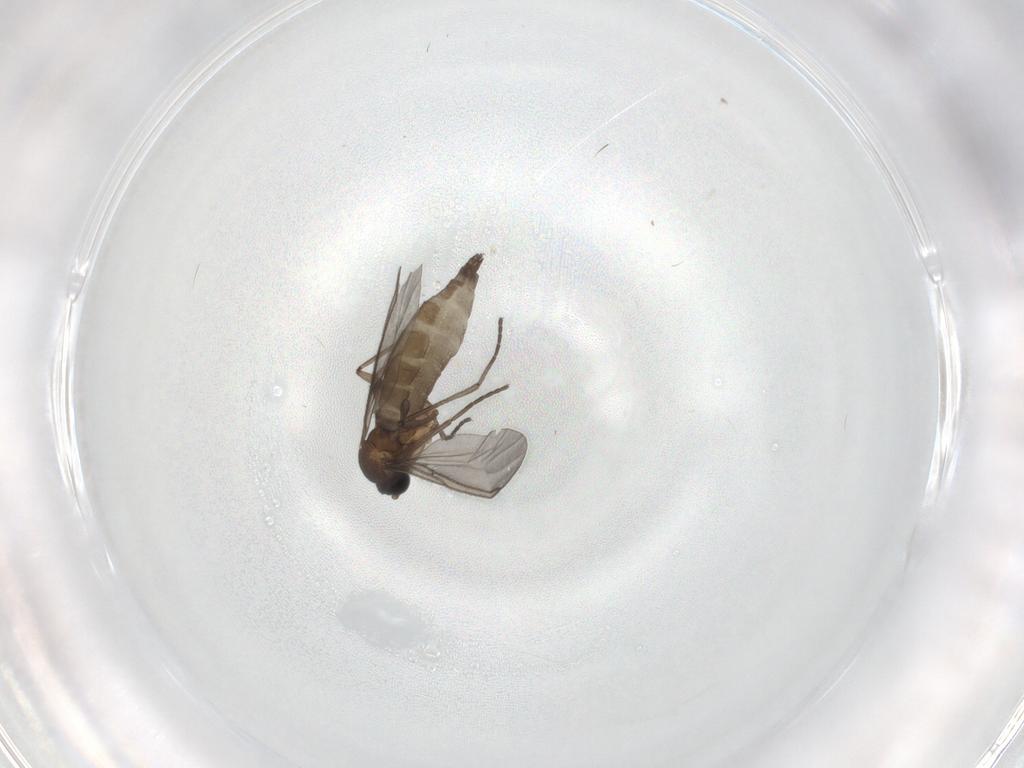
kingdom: Animalia
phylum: Arthropoda
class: Insecta
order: Diptera
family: Sciaridae
